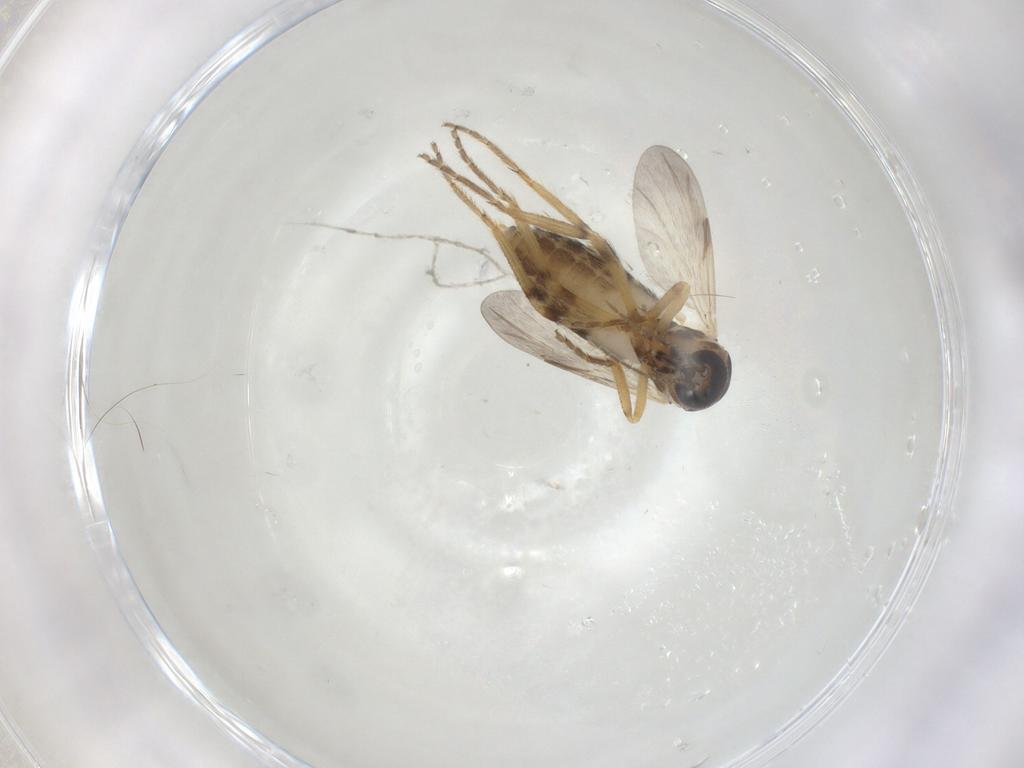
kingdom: Animalia
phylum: Arthropoda
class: Insecta
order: Diptera
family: Ceratopogonidae
